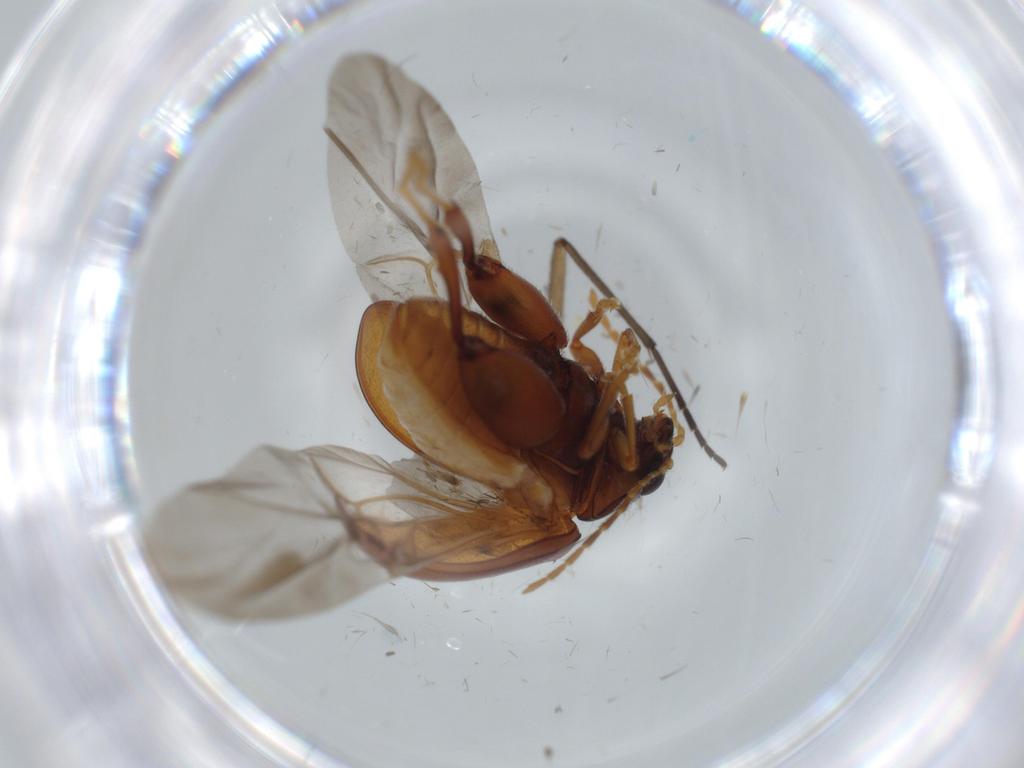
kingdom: Animalia
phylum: Arthropoda
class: Insecta
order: Coleoptera
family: Chrysomelidae
